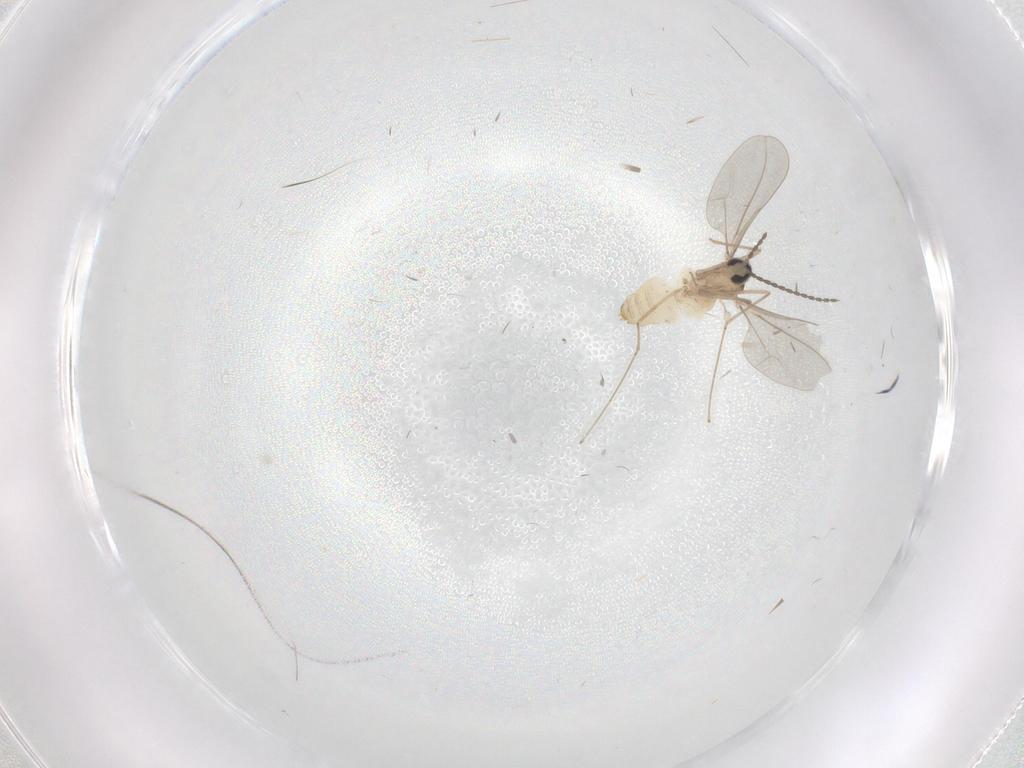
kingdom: Animalia
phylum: Arthropoda
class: Insecta
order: Diptera
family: Cecidomyiidae
